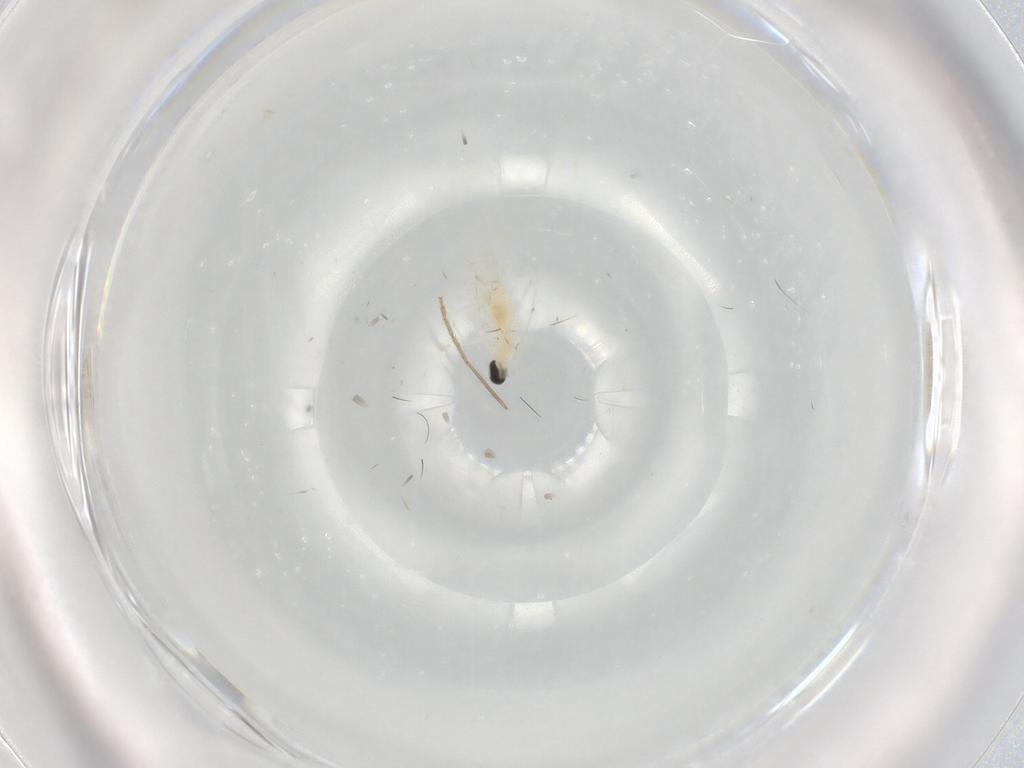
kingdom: Animalia
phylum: Arthropoda
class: Insecta
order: Diptera
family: Cecidomyiidae
